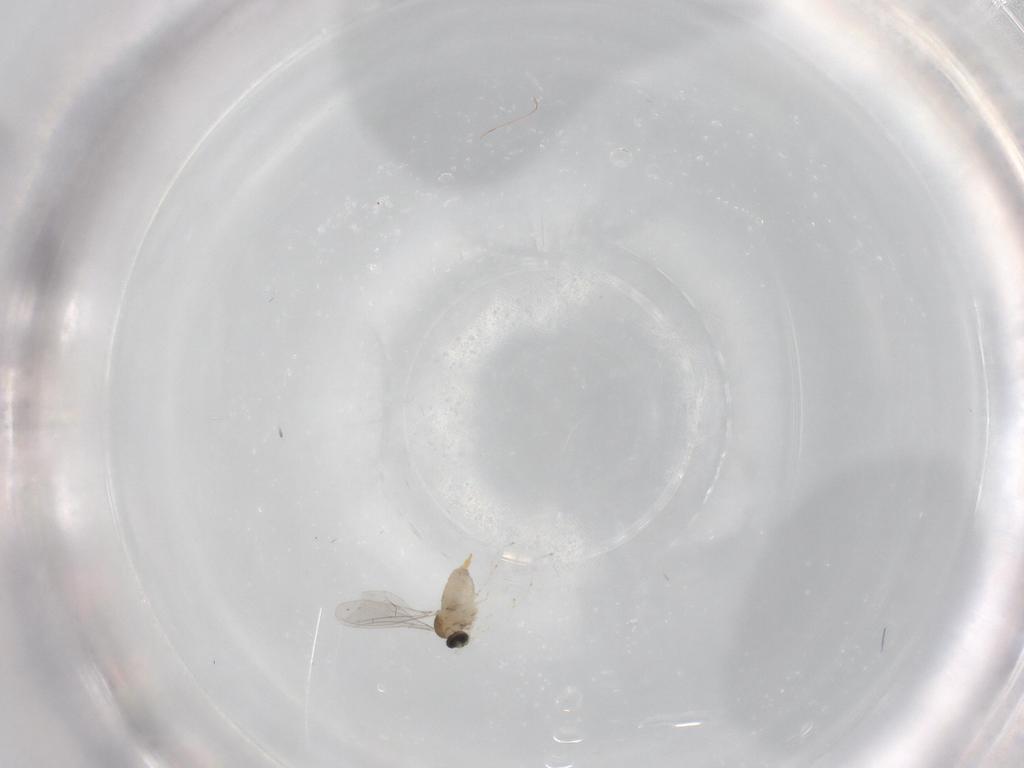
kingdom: Animalia
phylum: Arthropoda
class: Insecta
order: Diptera
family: Cecidomyiidae
